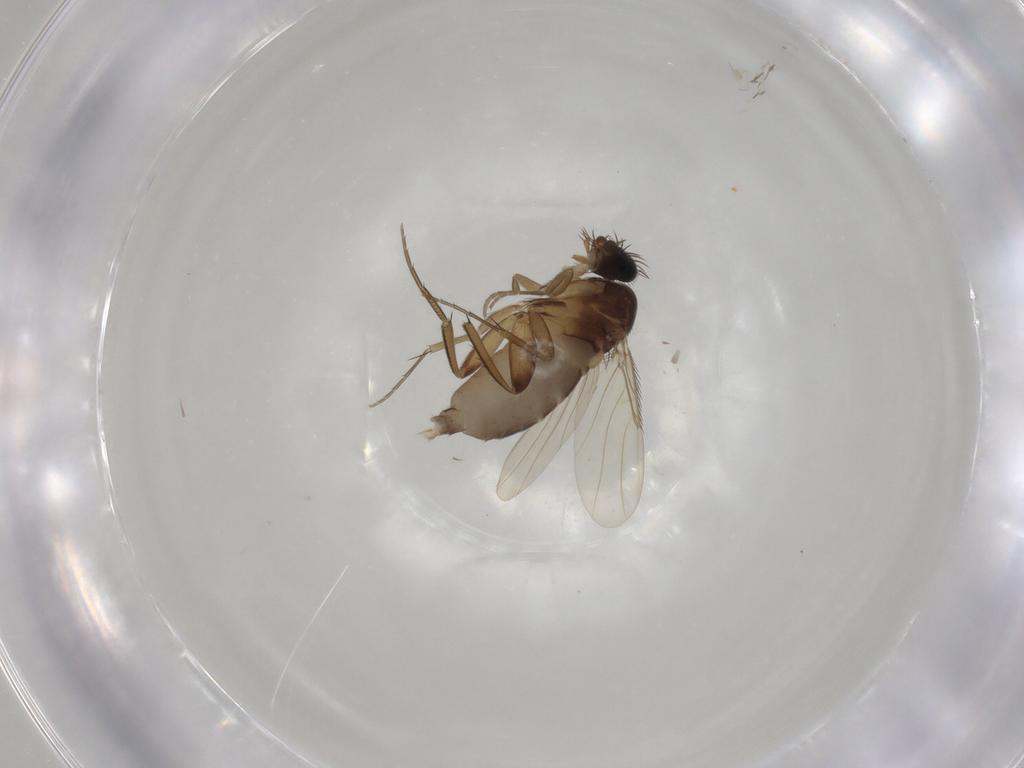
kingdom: Animalia
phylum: Arthropoda
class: Insecta
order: Diptera
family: Phoridae
